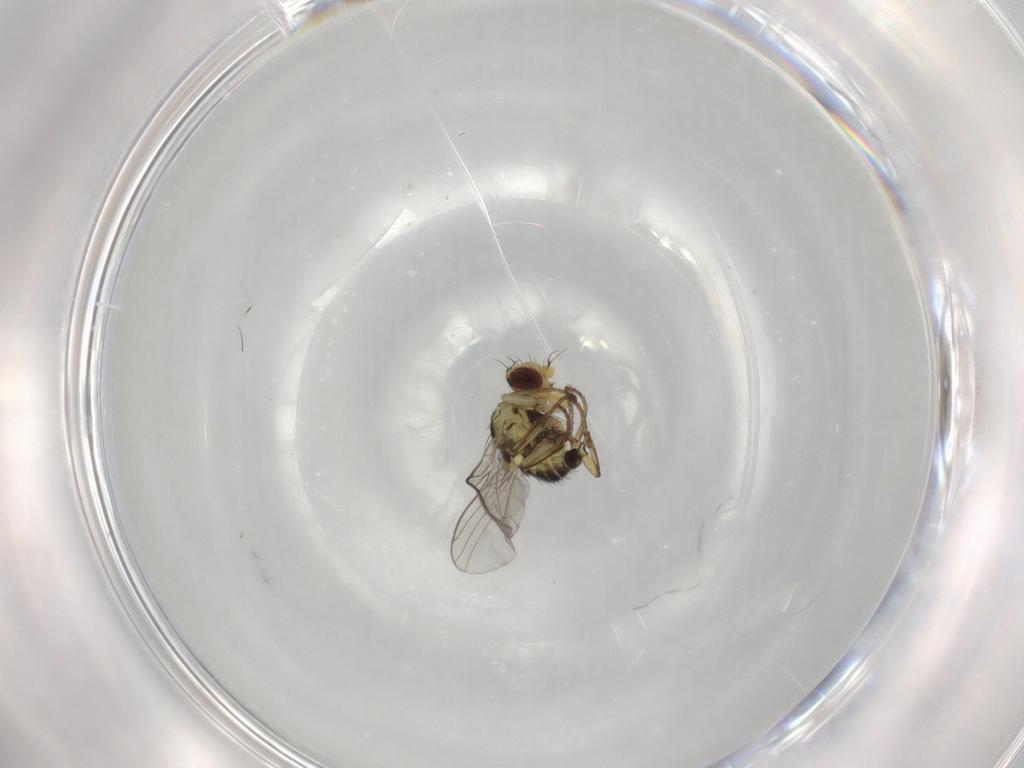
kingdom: Animalia
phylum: Arthropoda
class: Insecta
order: Diptera
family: Agromyzidae
